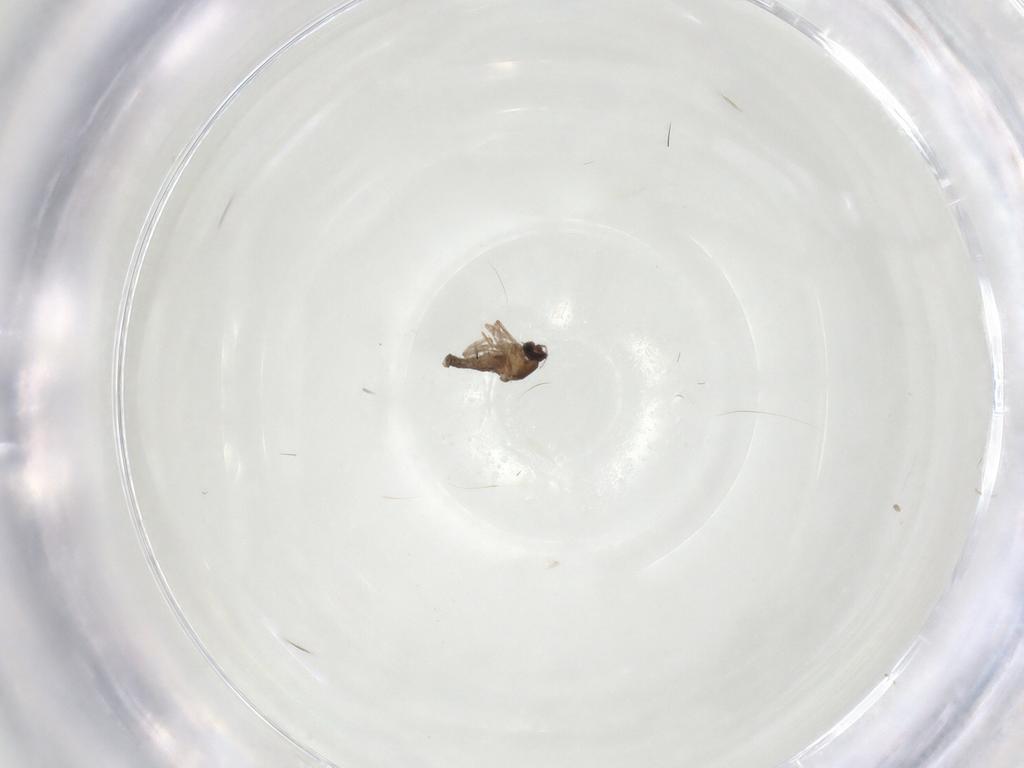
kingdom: Animalia
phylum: Arthropoda
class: Insecta
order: Diptera
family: Cecidomyiidae
